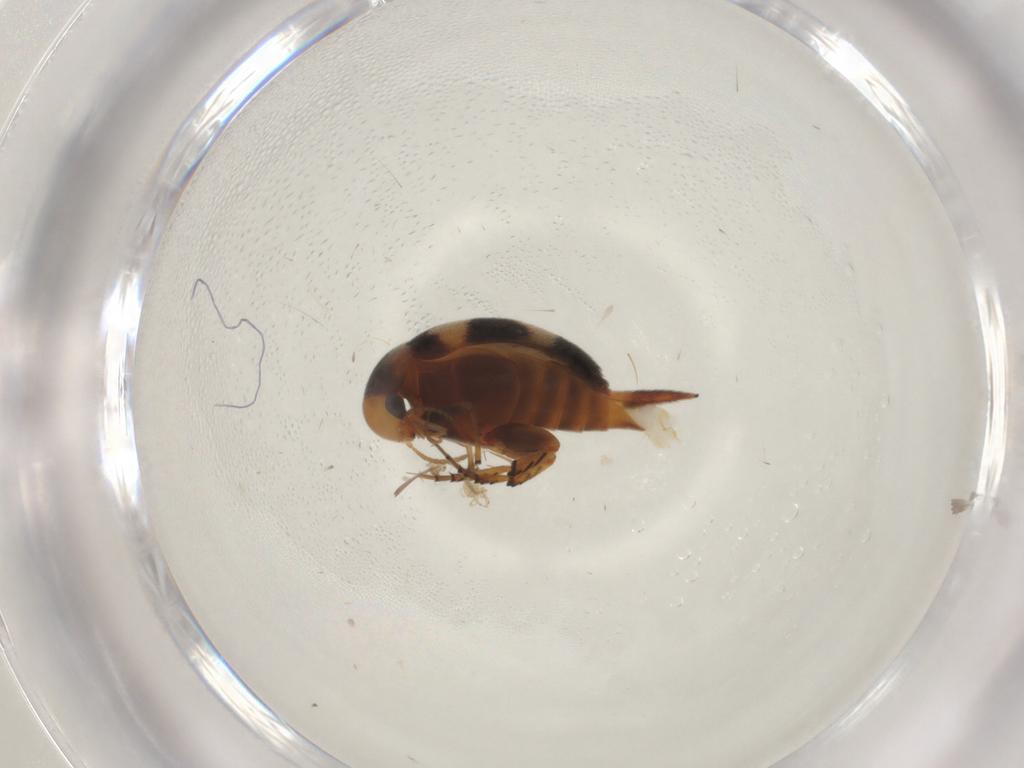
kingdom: Animalia
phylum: Arthropoda
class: Insecta
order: Coleoptera
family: Mordellidae
